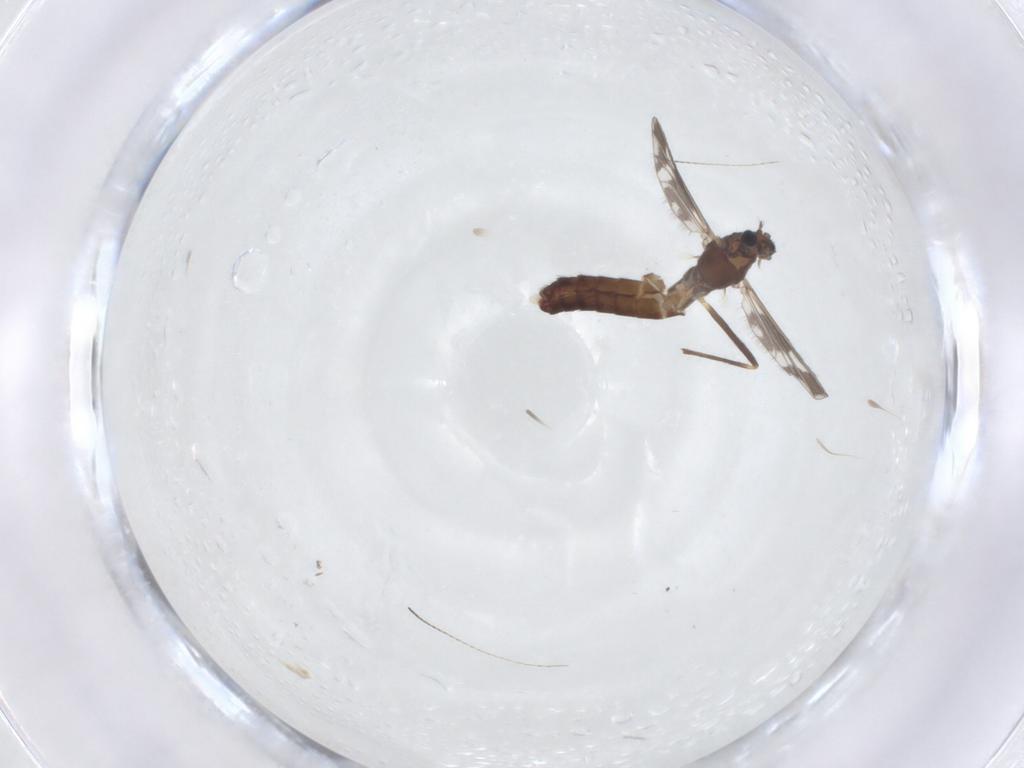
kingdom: Animalia
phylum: Arthropoda
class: Insecta
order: Diptera
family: Chironomidae
